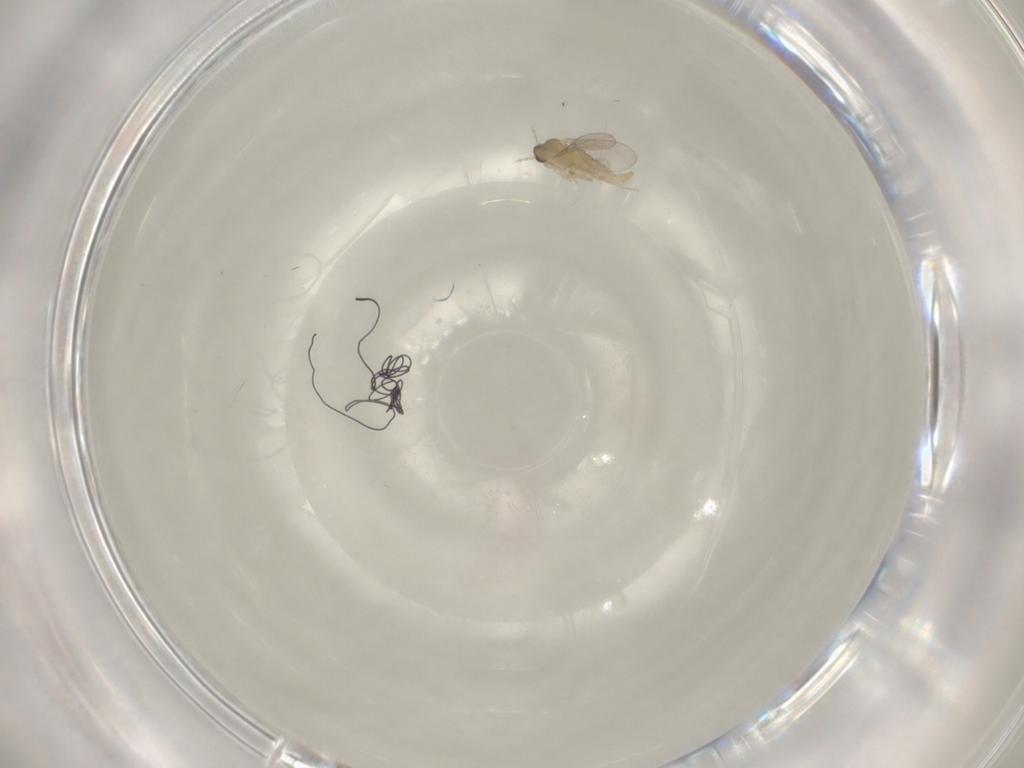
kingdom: Animalia
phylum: Arthropoda
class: Insecta
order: Diptera
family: Cecidomyiidae
